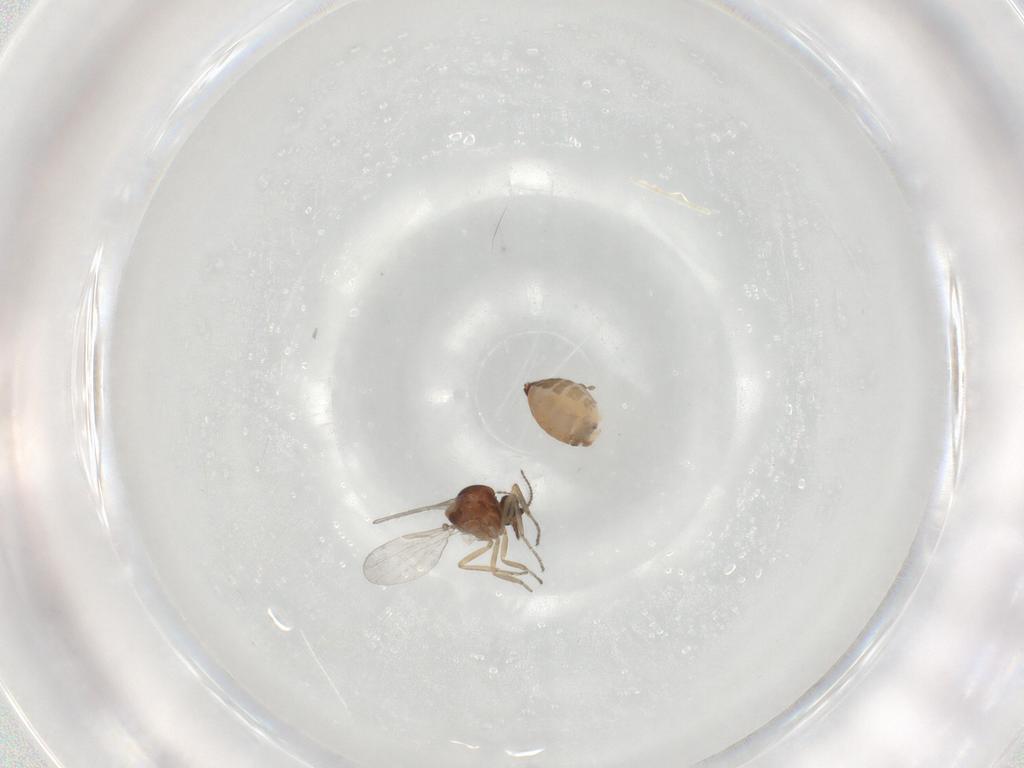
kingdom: Animalia
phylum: Arthropoda
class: Insecta
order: Diptera
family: Ceratopogonidae
